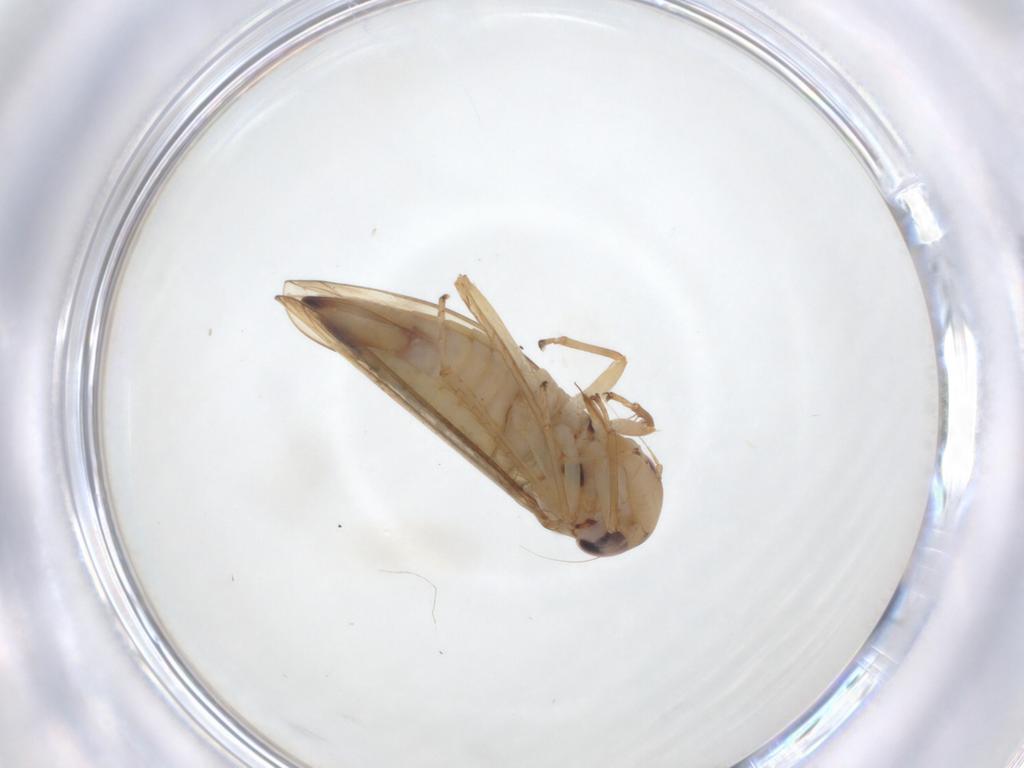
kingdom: Animalia
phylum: Arthropoda
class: Insecta
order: Hemiptera
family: Cicadellidae
